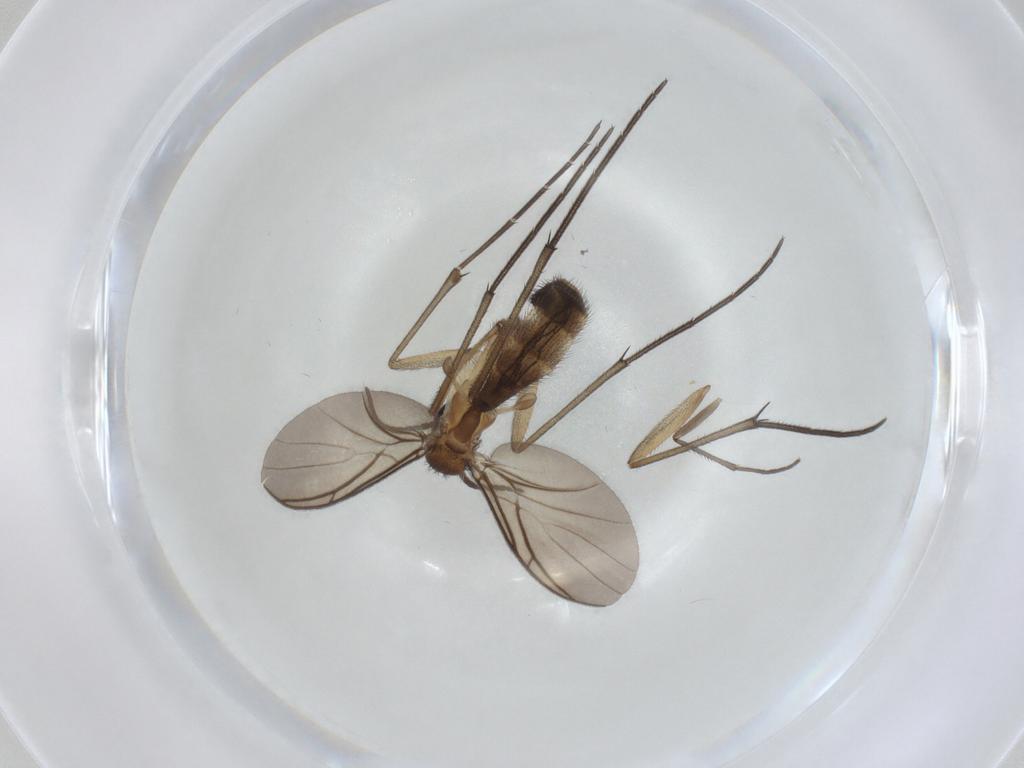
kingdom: Animalia
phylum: Arthropoda
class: Insecta
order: Diptera
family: Keroplatidae
